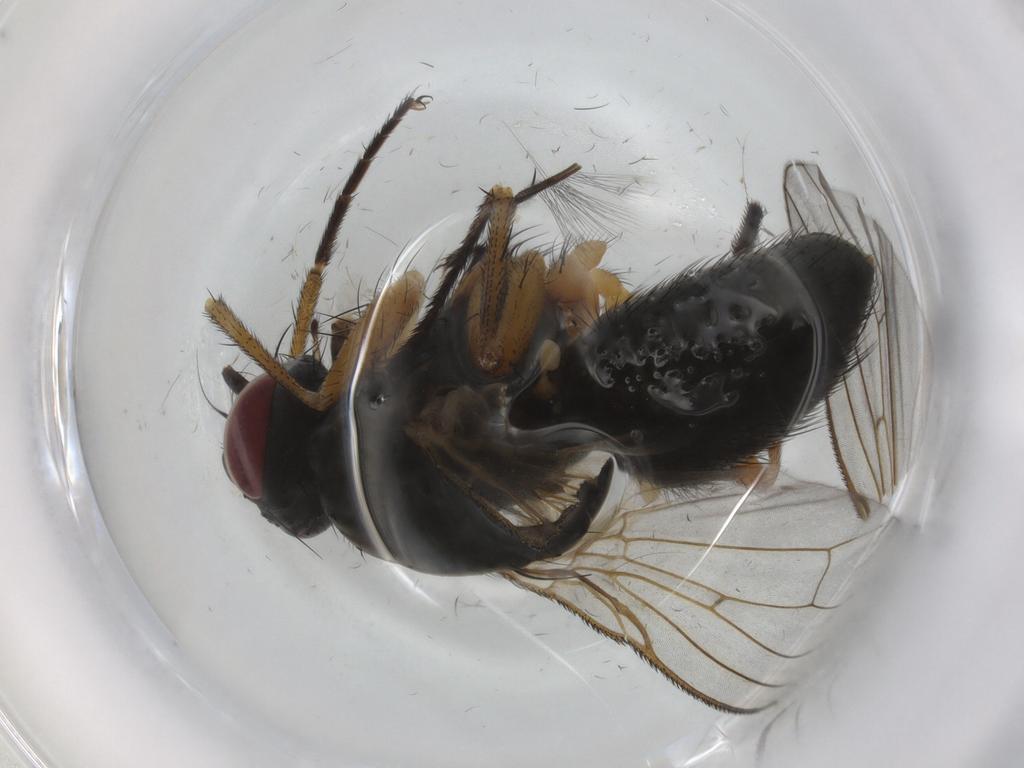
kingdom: Animalia
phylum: Arthropoda
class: Insecta
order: Diptera
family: Muscidae
